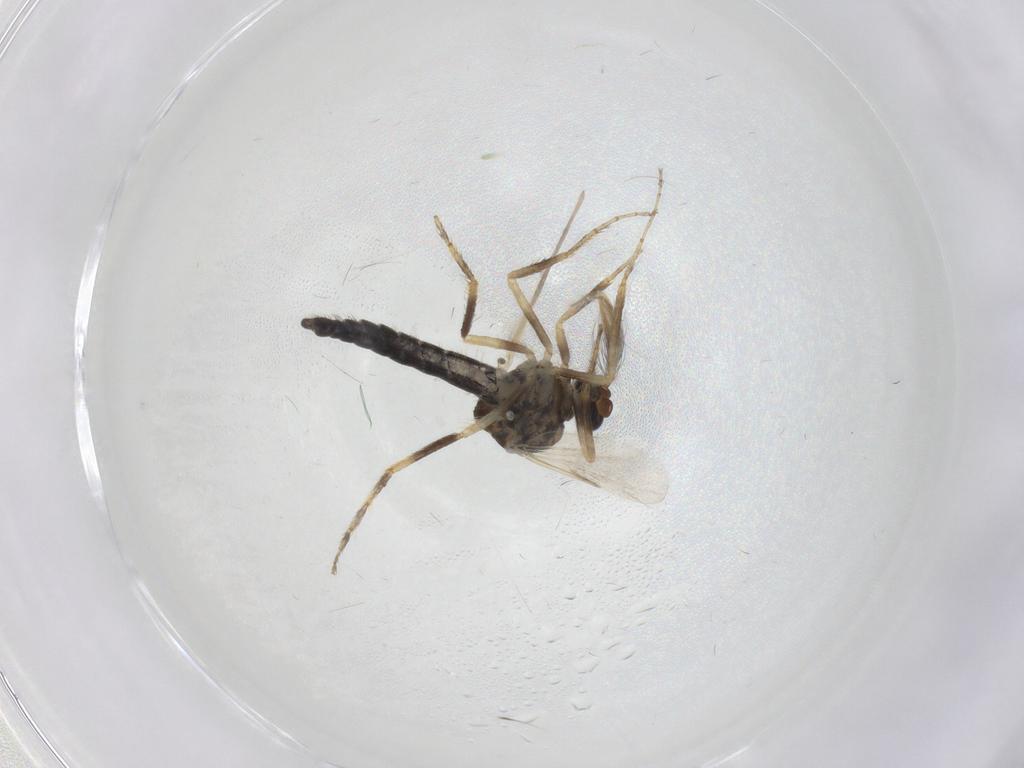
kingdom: Animalia
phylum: Arthropoda
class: Insecta
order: Diptera
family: Ceratopogonidae
